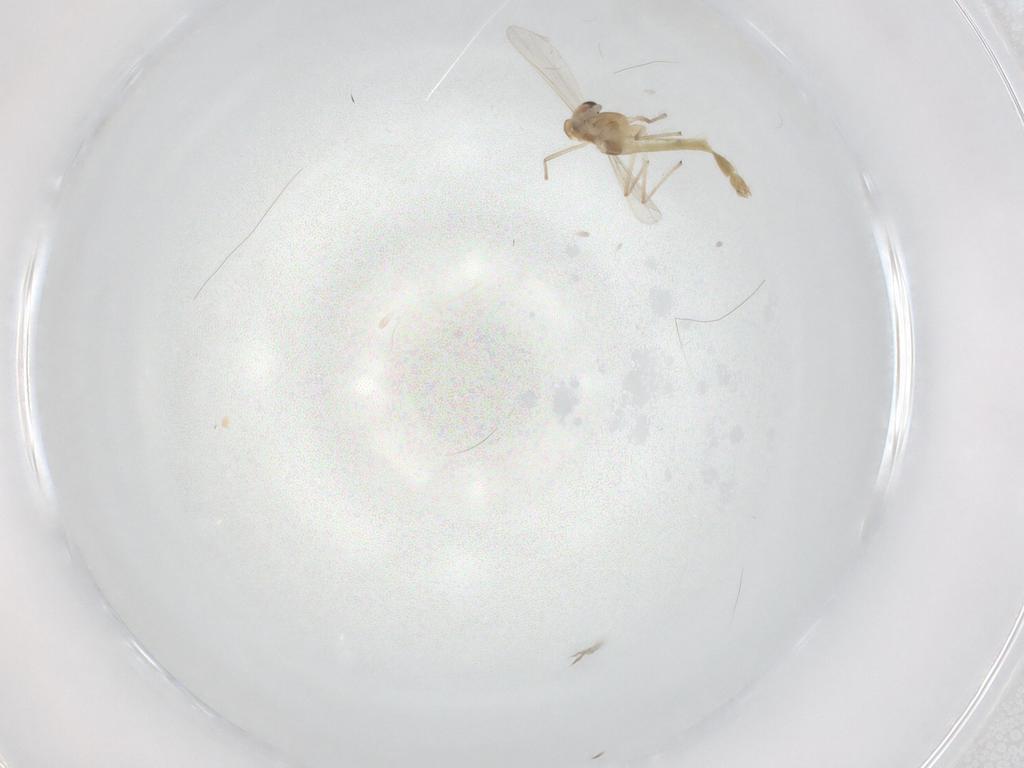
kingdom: Animalia
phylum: Arthropoda
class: Insecta
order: Diptera
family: Chironomidae
